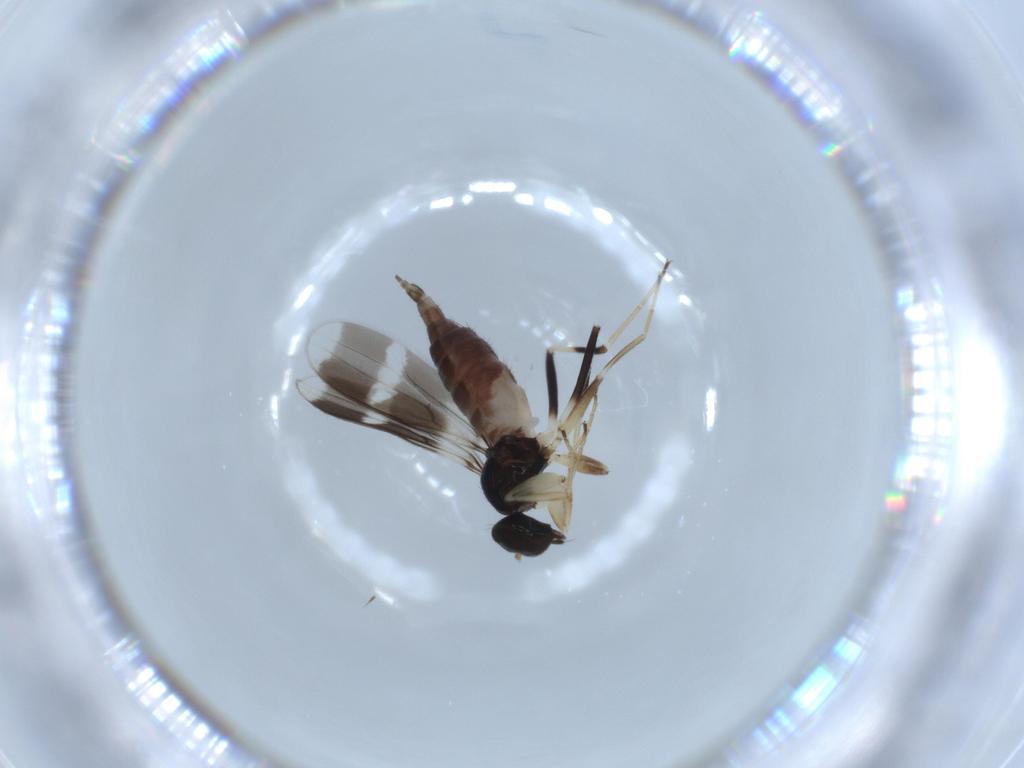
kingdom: Animalia
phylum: Arthropoda
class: Insecta
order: Diptera
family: Hybotidae
